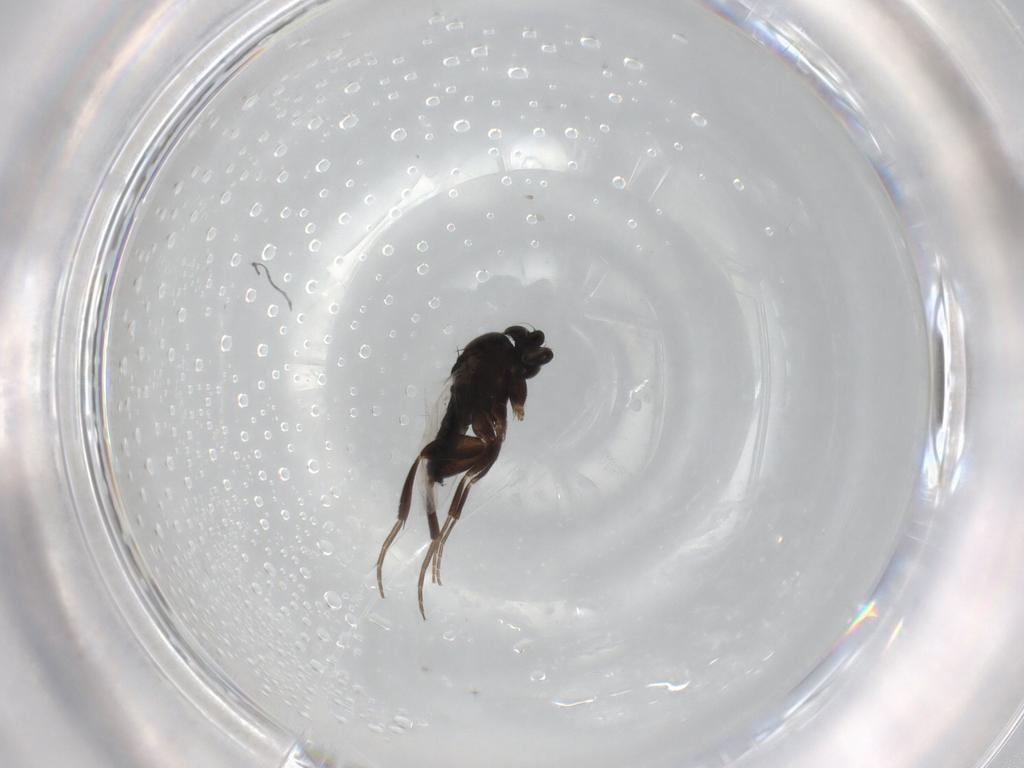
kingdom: Animalia
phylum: Arthropoda
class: Insecta
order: Diptera
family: Phoridae
